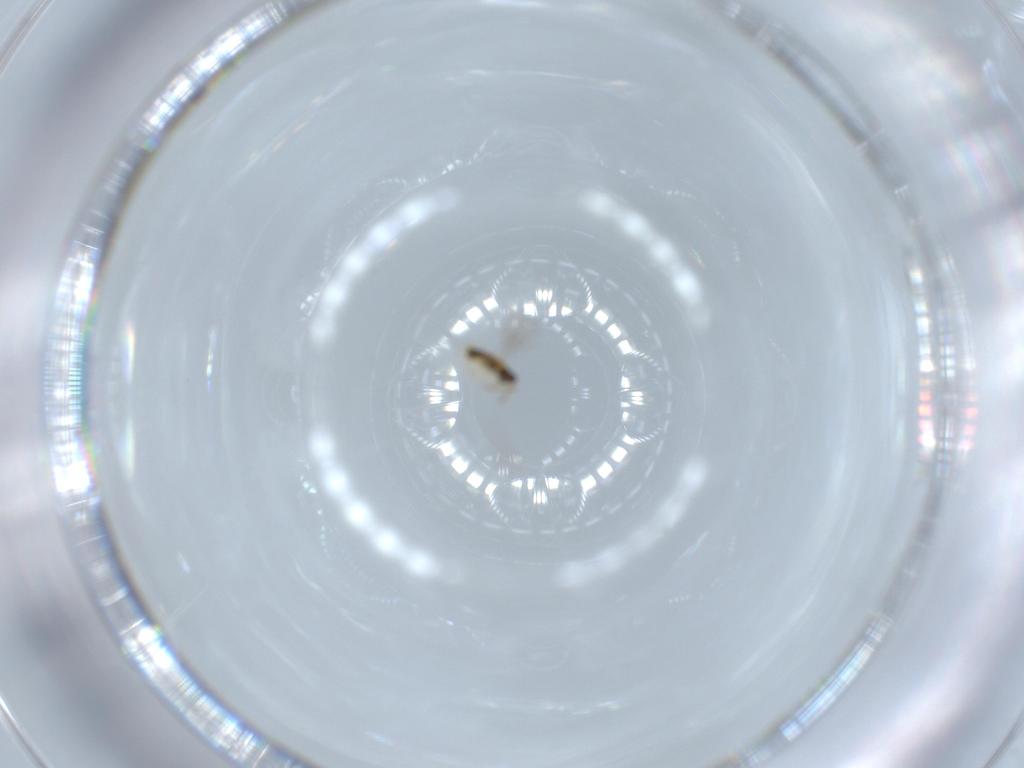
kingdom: Animalia
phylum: Arthropoda
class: Insecta
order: Hymenoptera
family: Aphelinidae
